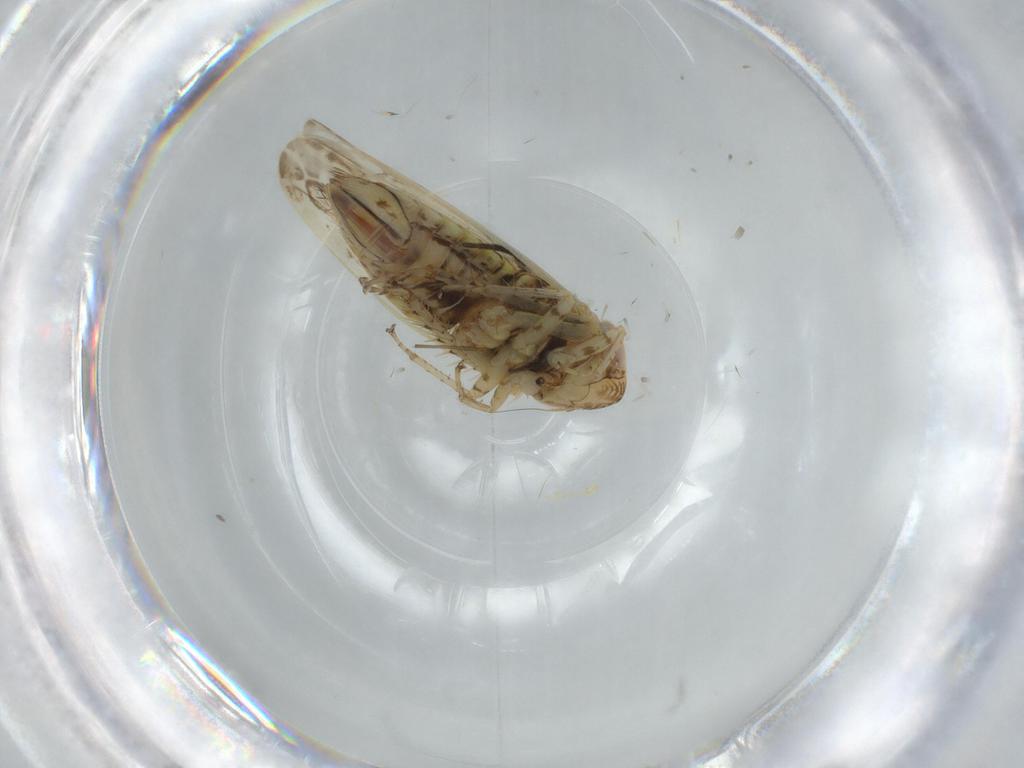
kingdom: Animalia
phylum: Arthropoda
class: Insecta
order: Hemiptera
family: Cicadellidae
